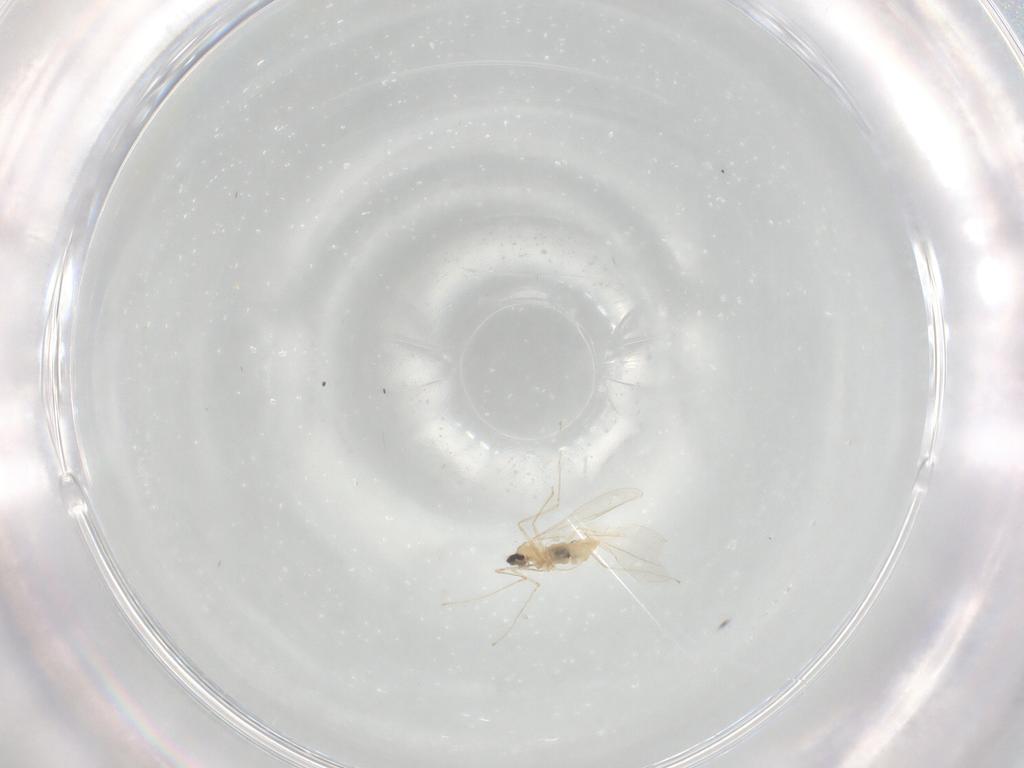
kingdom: Animalia
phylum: Arthropoda
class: Insecta
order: Diptera
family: Cecidomyiidae
